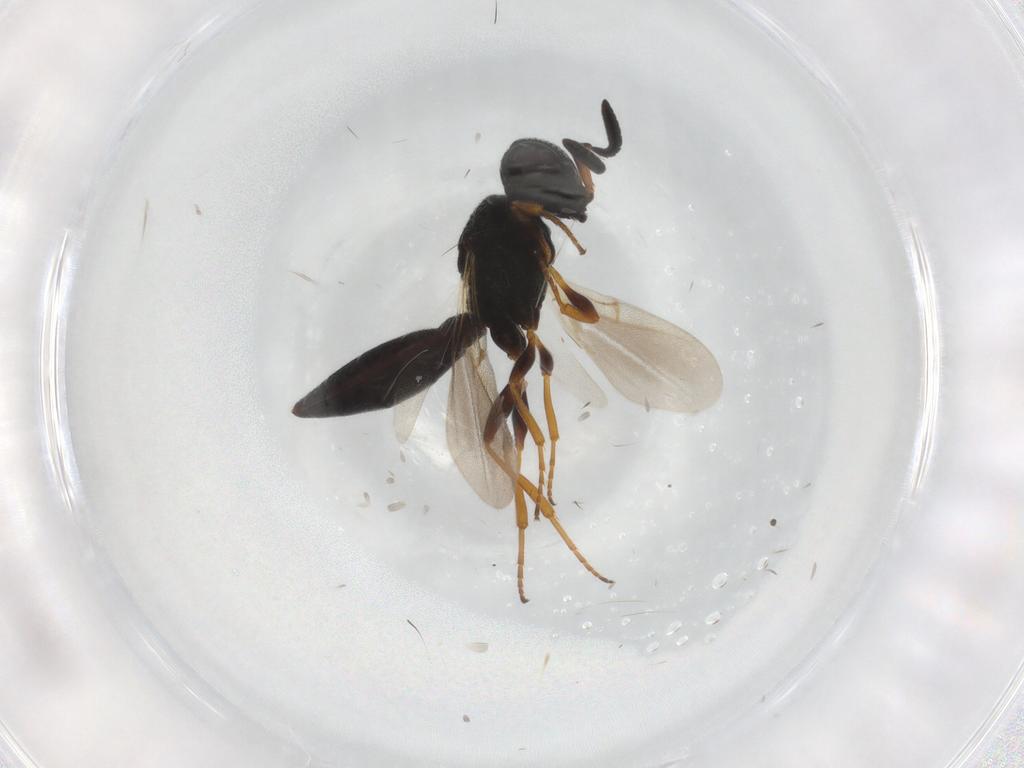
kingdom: Animalia
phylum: Arthropoda
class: Insecta
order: Hymenoptera
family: Scelionidae
